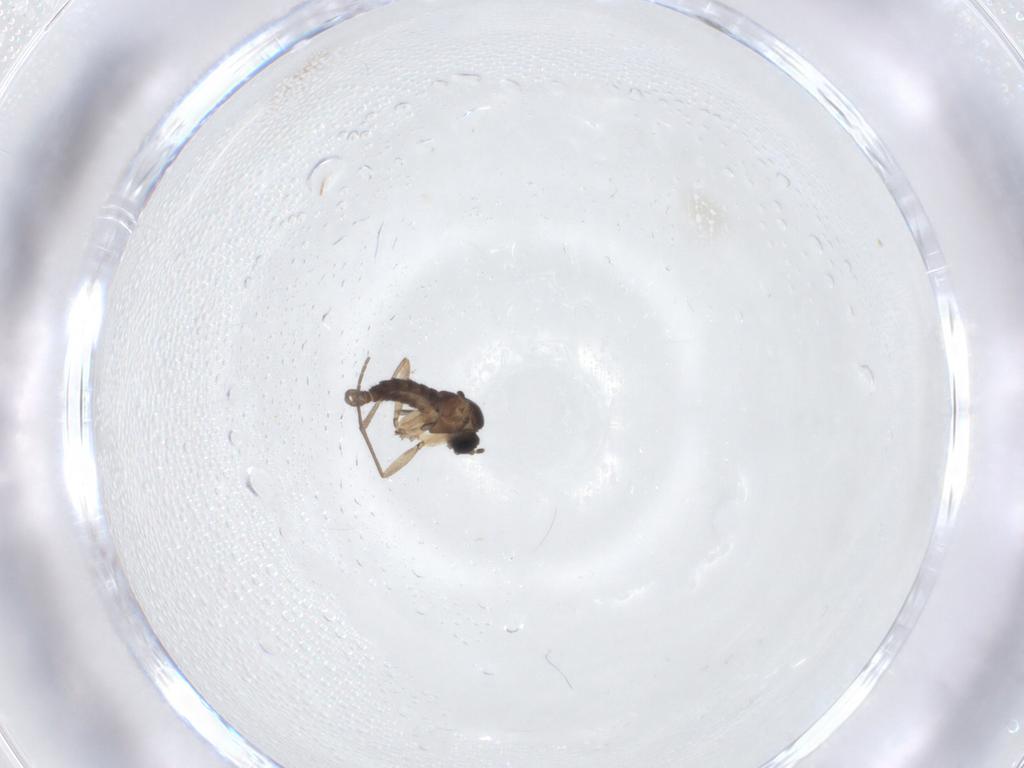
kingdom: Animalia
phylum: Arthropoda
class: Insecta
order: Diptera
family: Sciaridae
